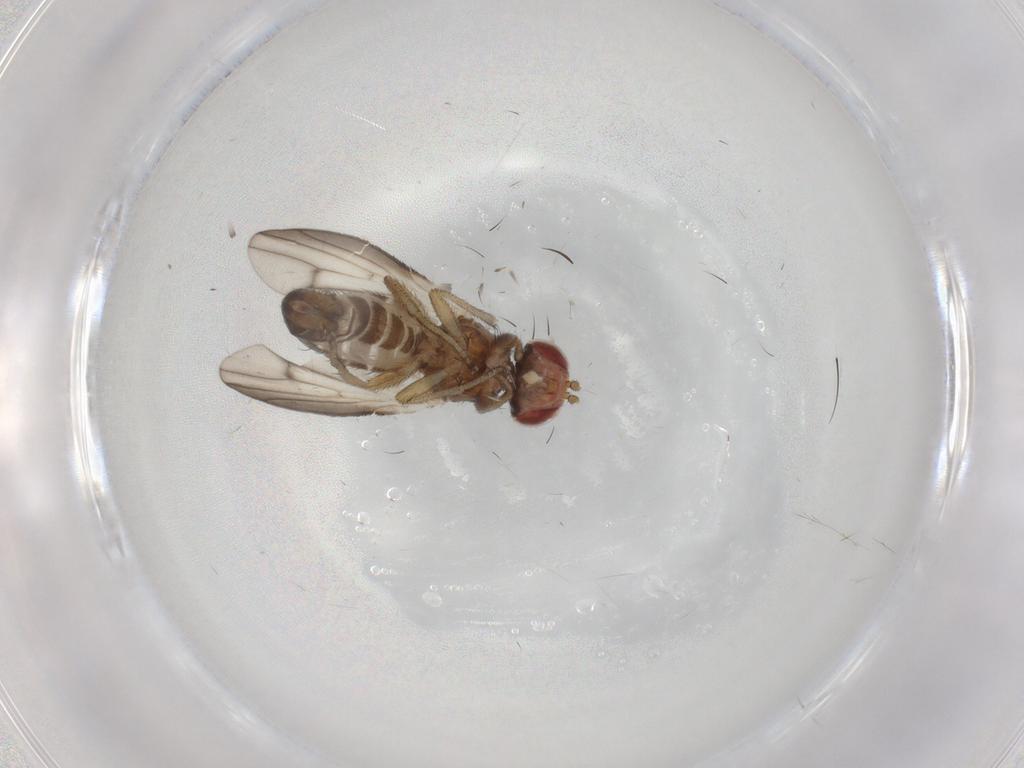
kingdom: Animalia
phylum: Arthropoda
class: Insecta
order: Diptera
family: Heleomyzidae
